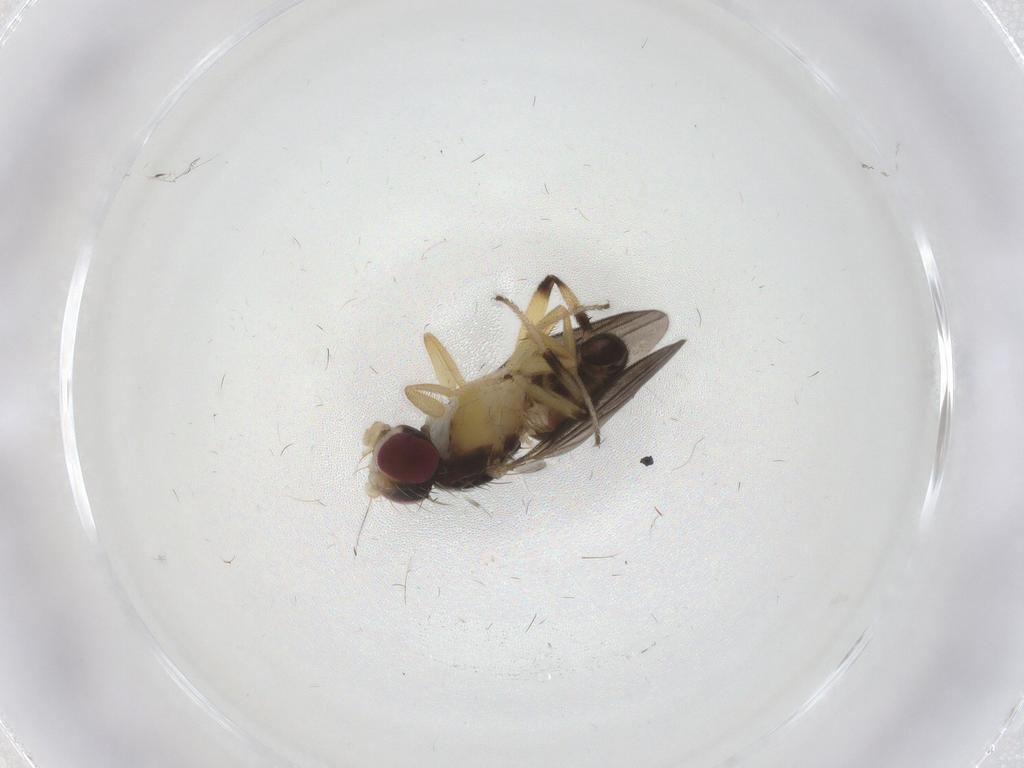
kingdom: Animalia
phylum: Arthropoda
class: Insecta
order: Diptera
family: Clusiidae
